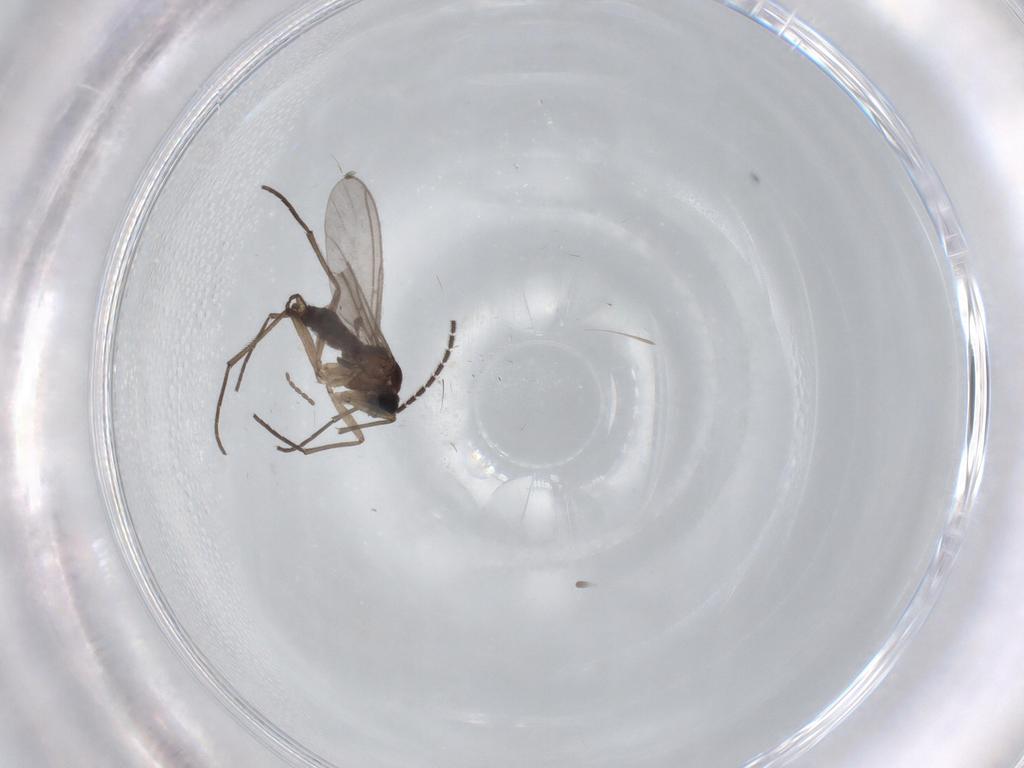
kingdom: Animalia
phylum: Arthropoda
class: Insecta
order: Diptera
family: Sciaridae
